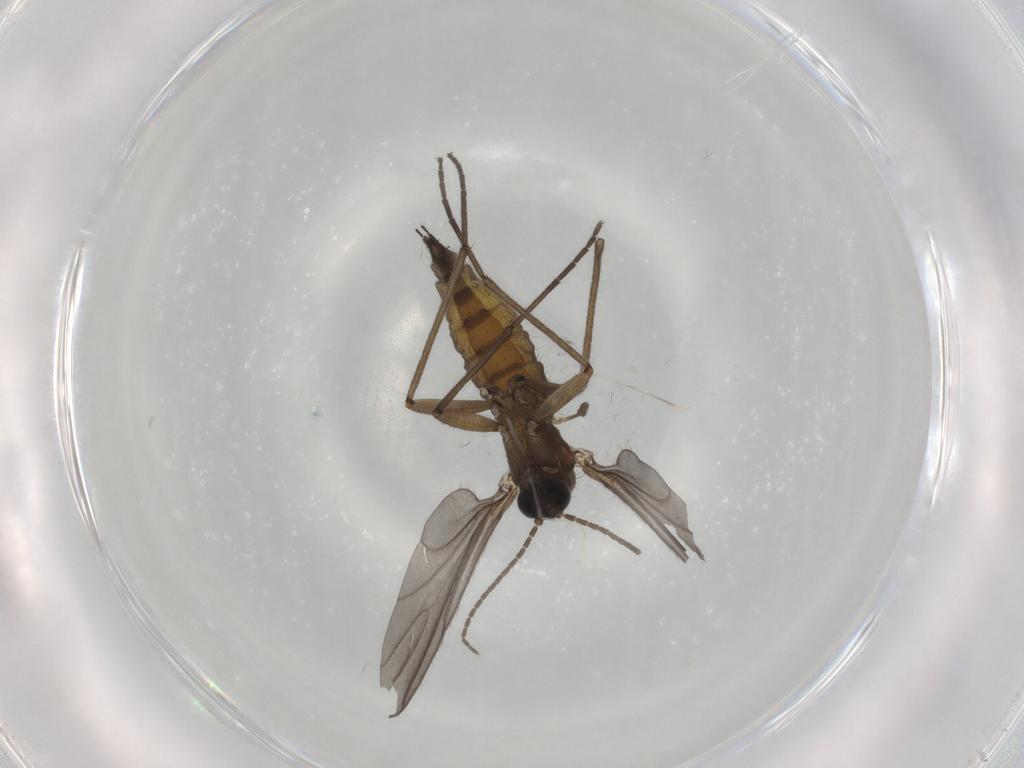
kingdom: Animalia
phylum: Arthropoda
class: Insecta
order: Diptera
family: Sciaridae
